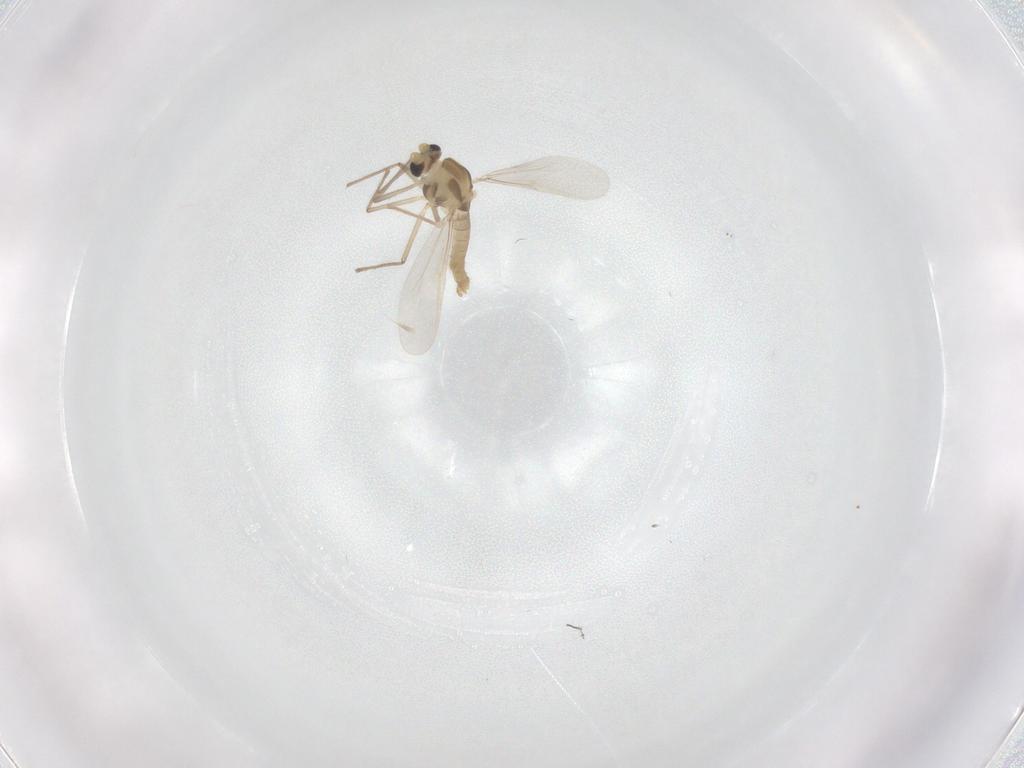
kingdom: Animalia
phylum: Arthropoda
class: Insecta
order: Diptera
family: Chironomidae
